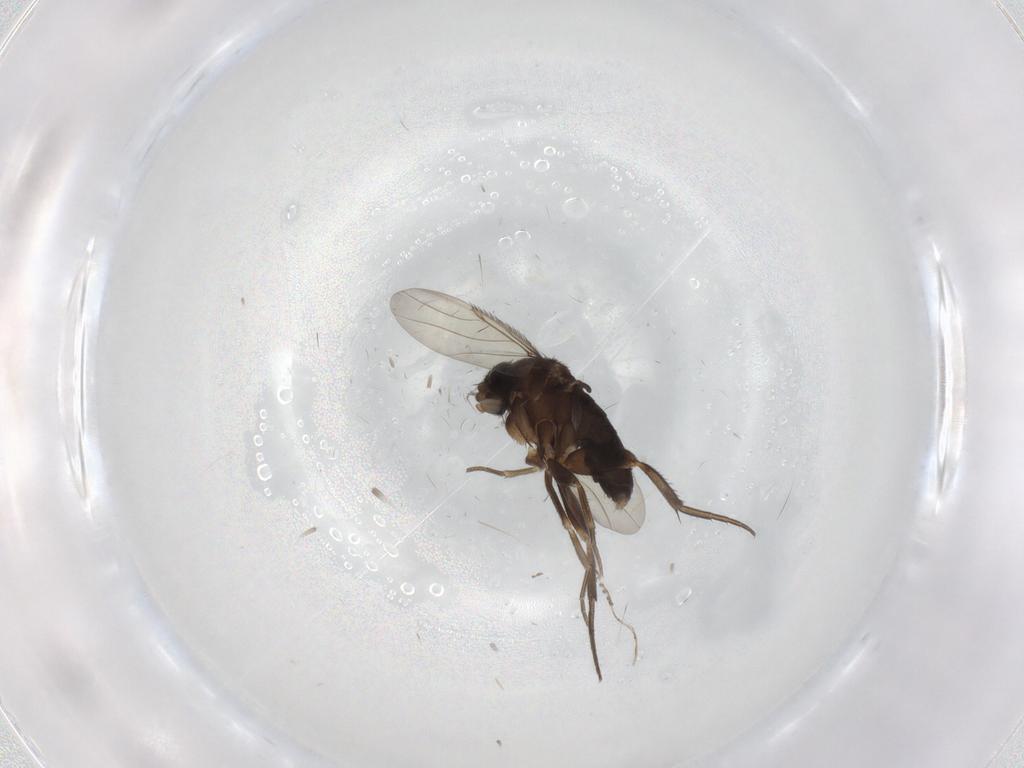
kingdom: Animalia
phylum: Arthropoda
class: Insecta
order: Diptera
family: Phoridae
